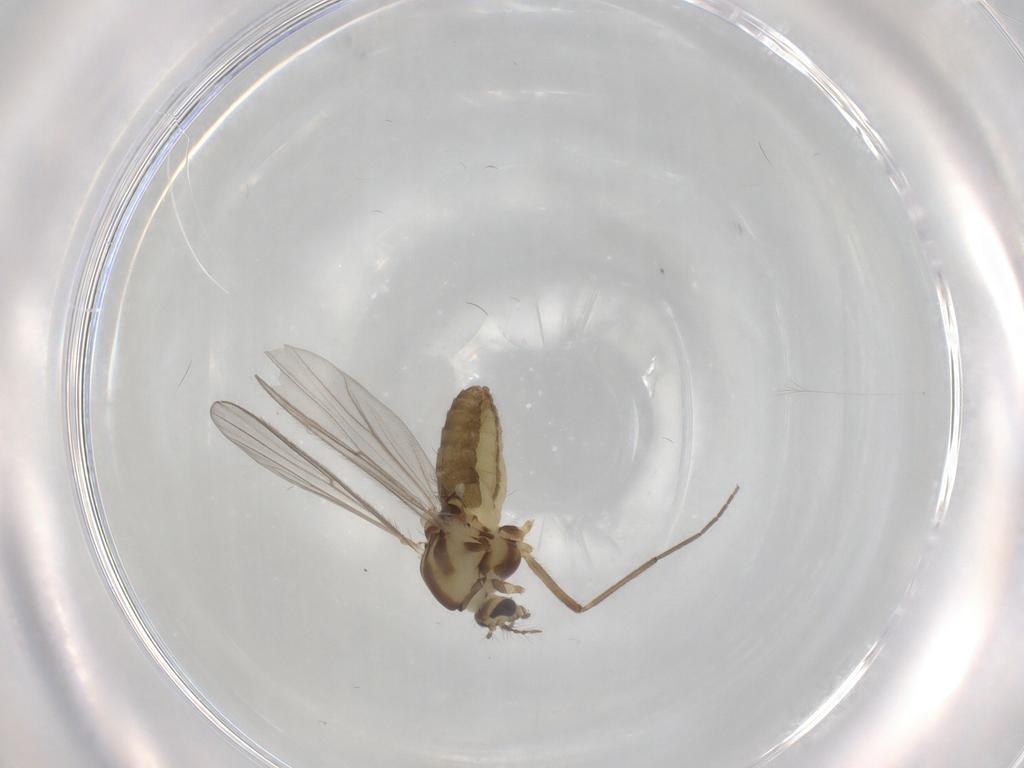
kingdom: Animalia
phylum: Arthropoda
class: Insecta
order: Diptera
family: Chironomidae
